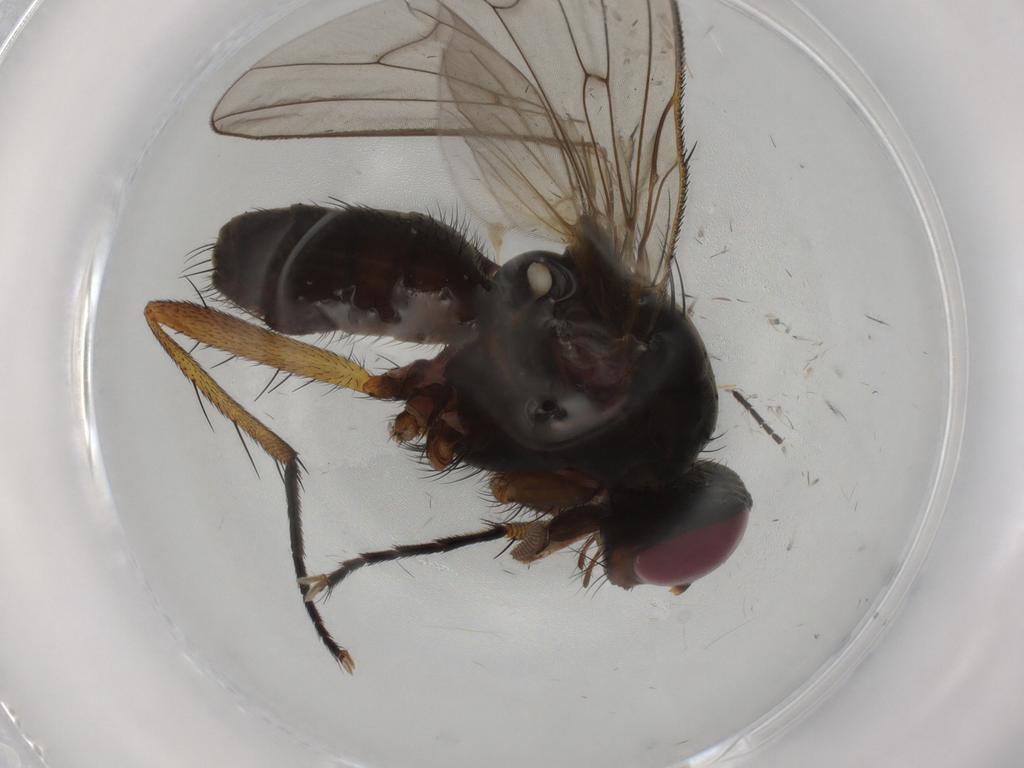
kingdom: Animalia
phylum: Arthropoda
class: Insecta
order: Diptera
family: Anthomyiidae
